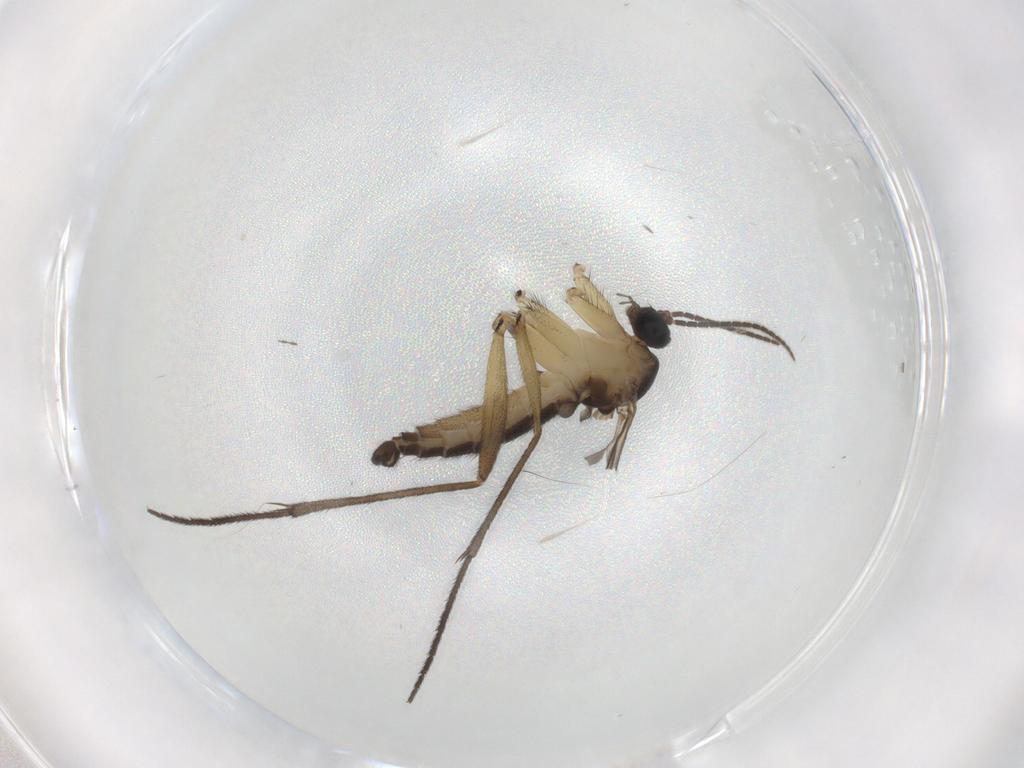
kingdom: Animalia
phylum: Arthropoda
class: Insecta
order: Diptera
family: Sciaridae
